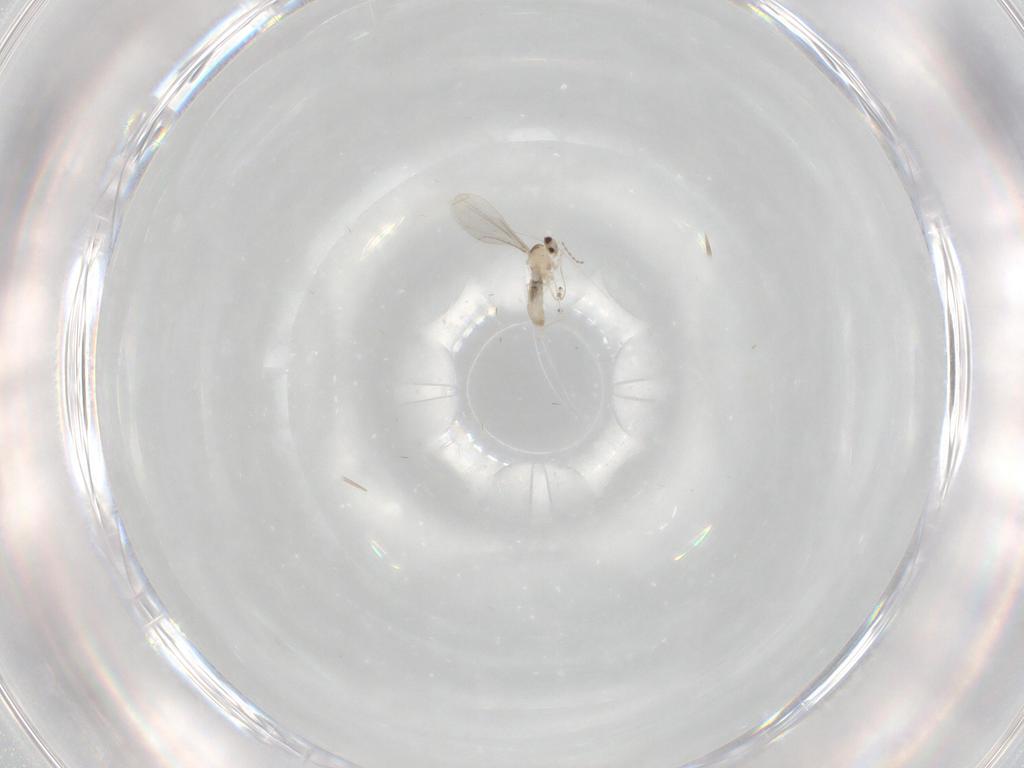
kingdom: Animalia
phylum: Arthropoda
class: Insecta
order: Diptera
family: Cecidomyiidae
